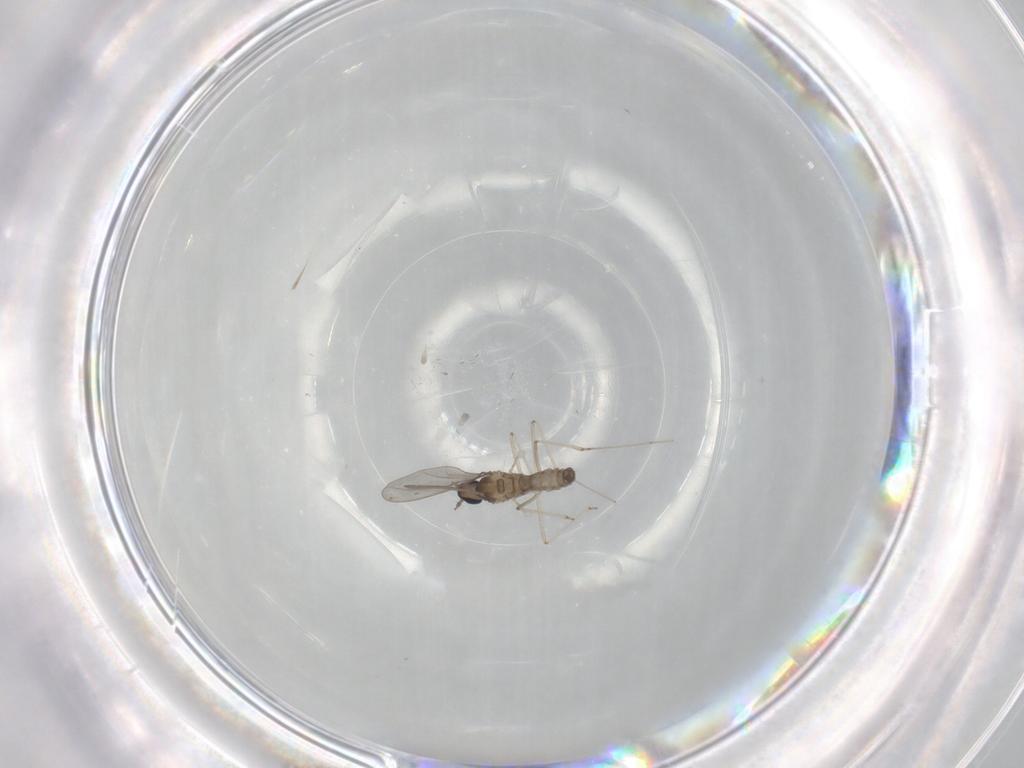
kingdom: Animalia
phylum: Arthropoda
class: Insecta
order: Diptera
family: Cecidomyiidae
